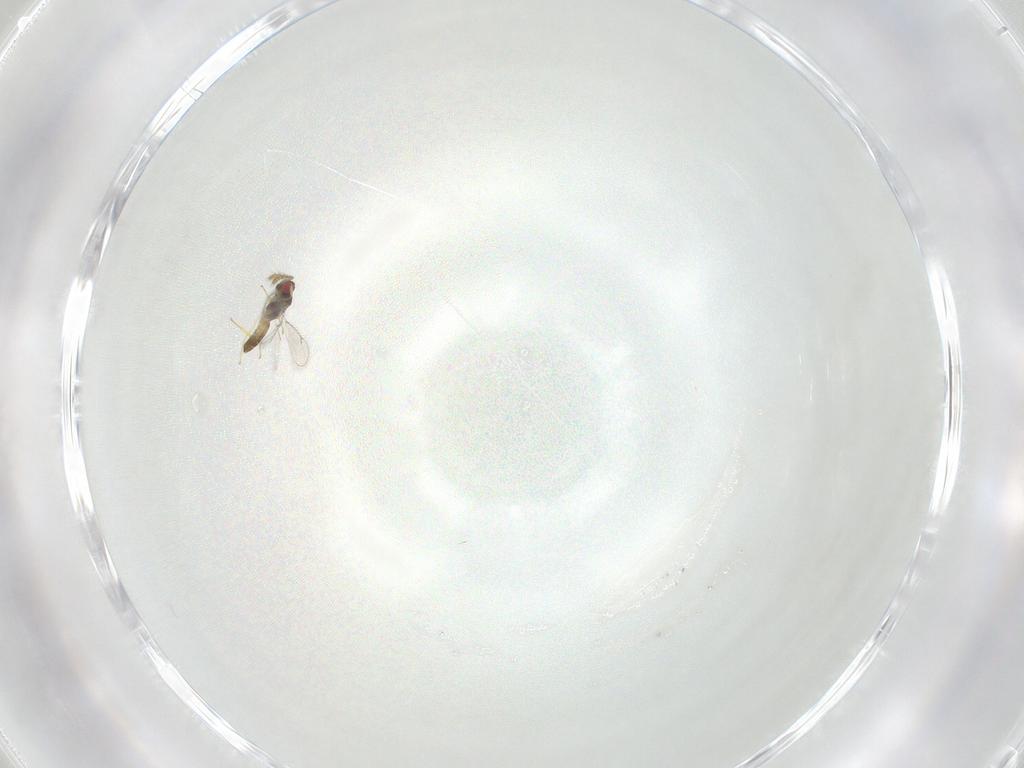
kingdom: Animalia
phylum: Arthropoda
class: Insecta
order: Hymenoptera
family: Eulophidae
